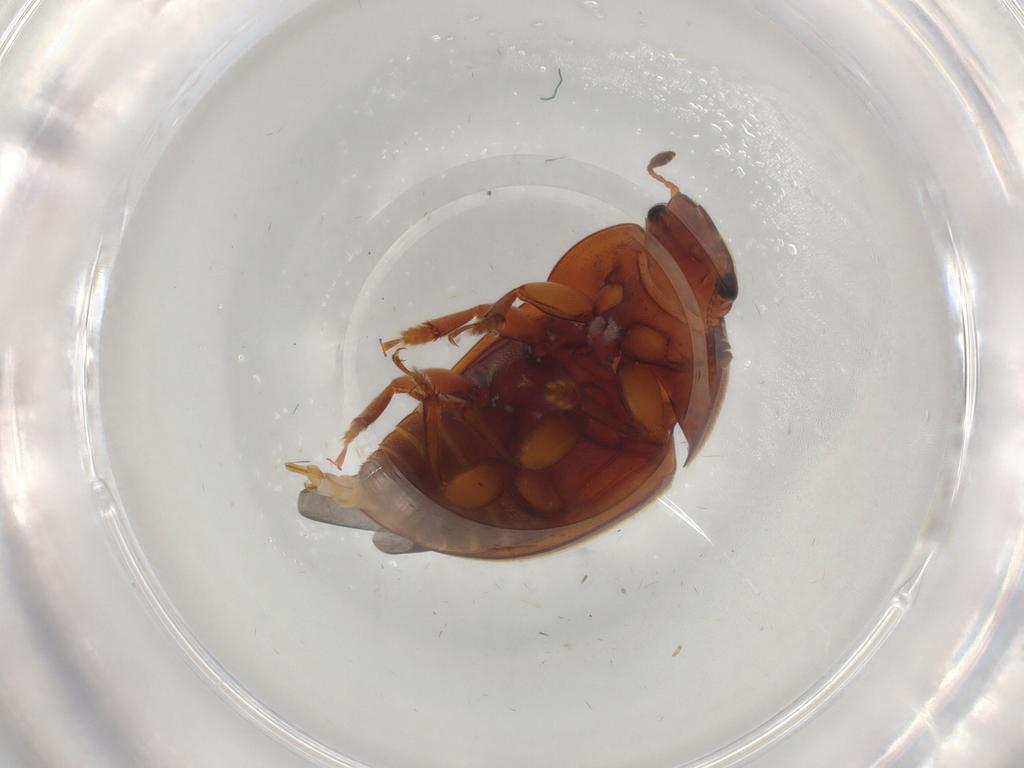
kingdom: Animalia
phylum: Arthropoda
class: Insecta
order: Coleoptera
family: Nitidulidae
